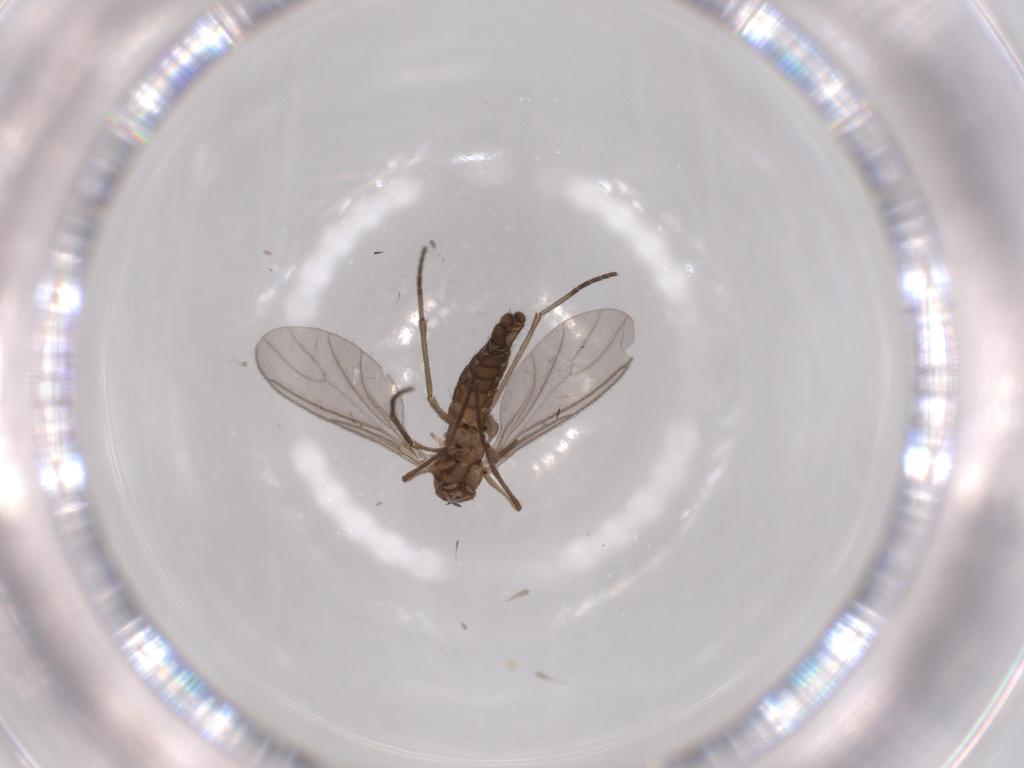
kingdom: Animalia
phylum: Arthropoda
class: Insecta
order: Diptera
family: Sciaridae
